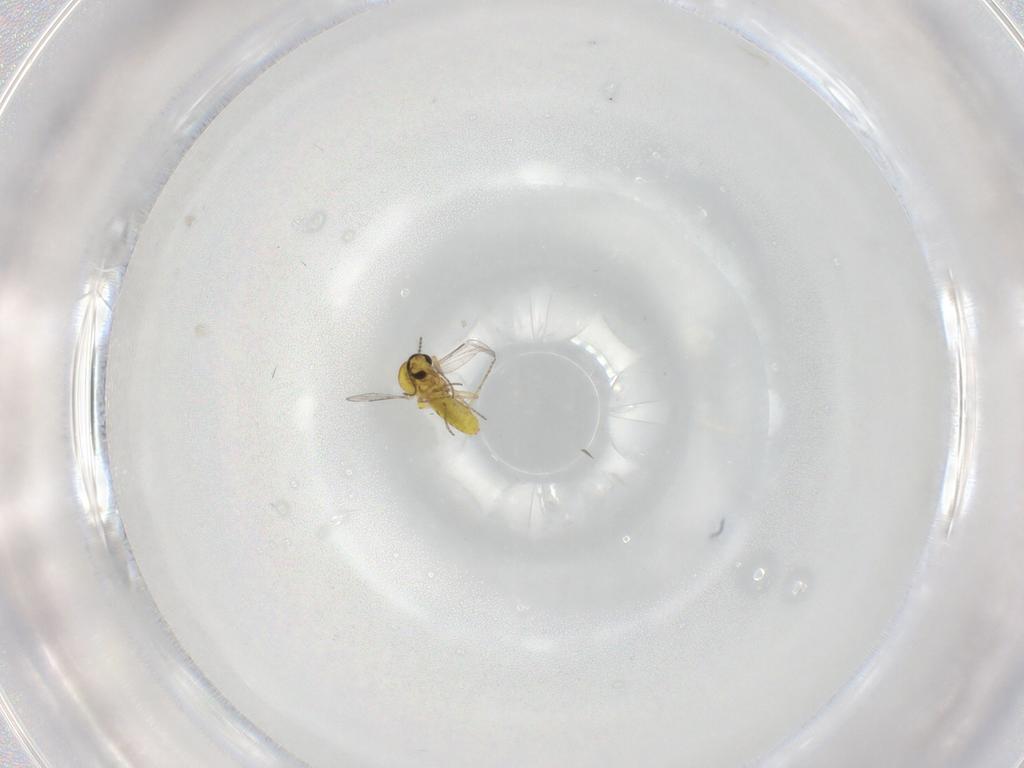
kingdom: Animalia
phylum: Arthropoda
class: Insecta
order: Diptera
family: Ceratopogonidae
